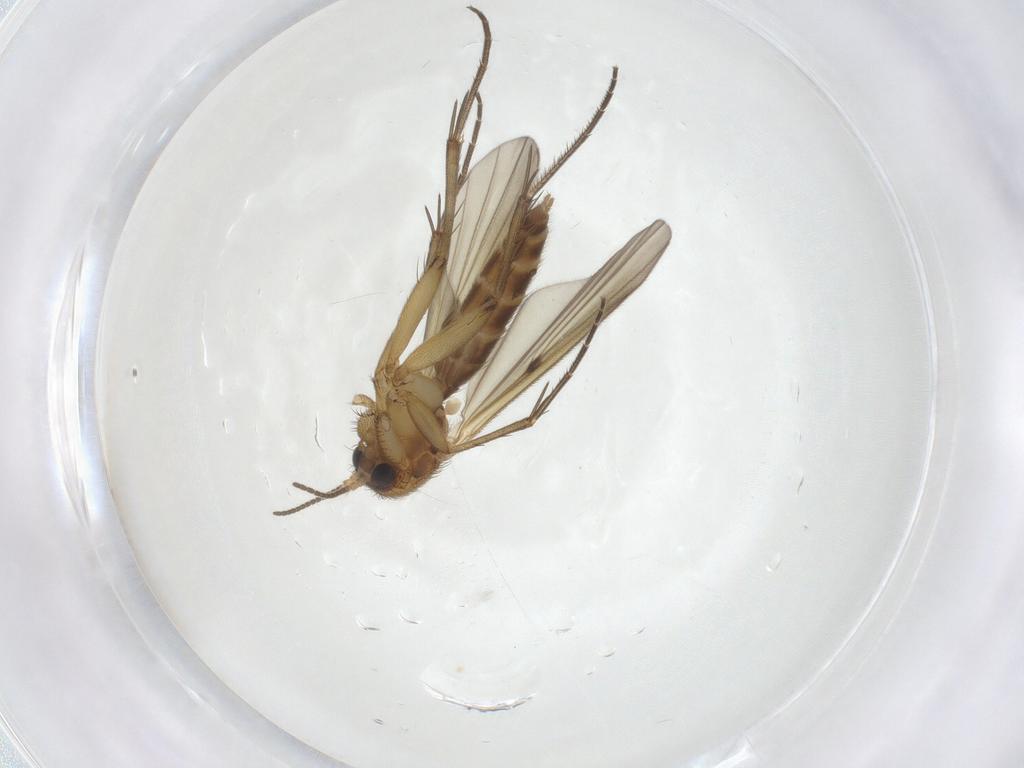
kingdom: Animalia
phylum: Arthropoda
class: Insecta
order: Diptera
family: Cecidomyiidae
